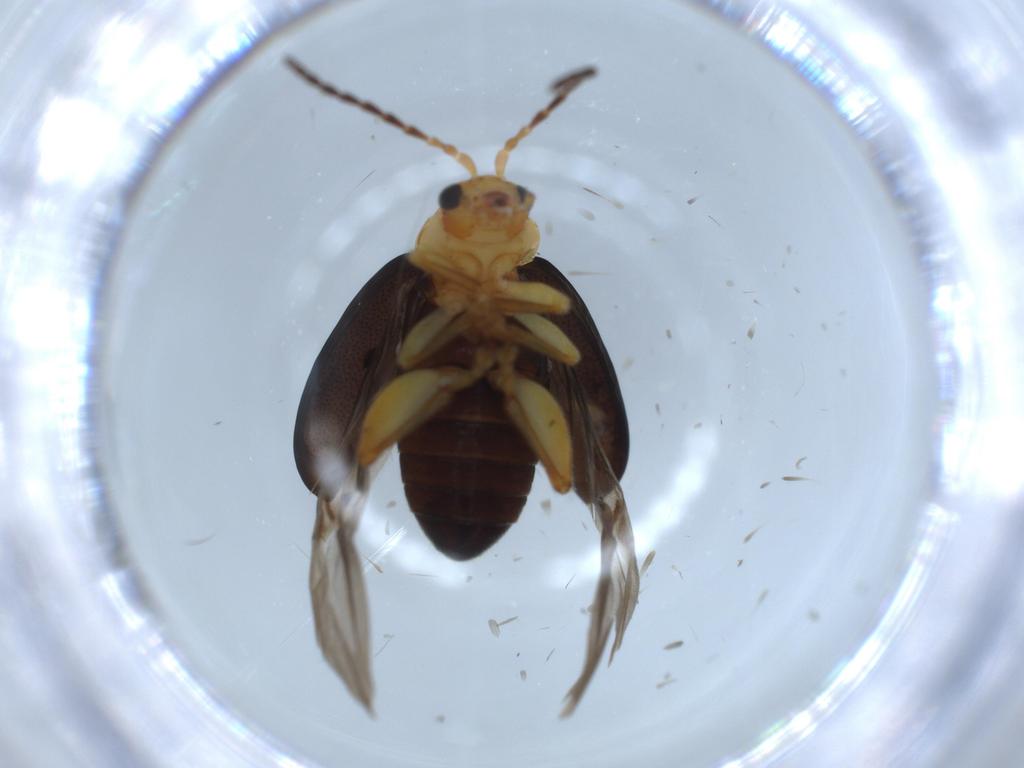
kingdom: Animalia
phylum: Arthropoda
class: Insecta
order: Coleoptera
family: Chrysomelidae
